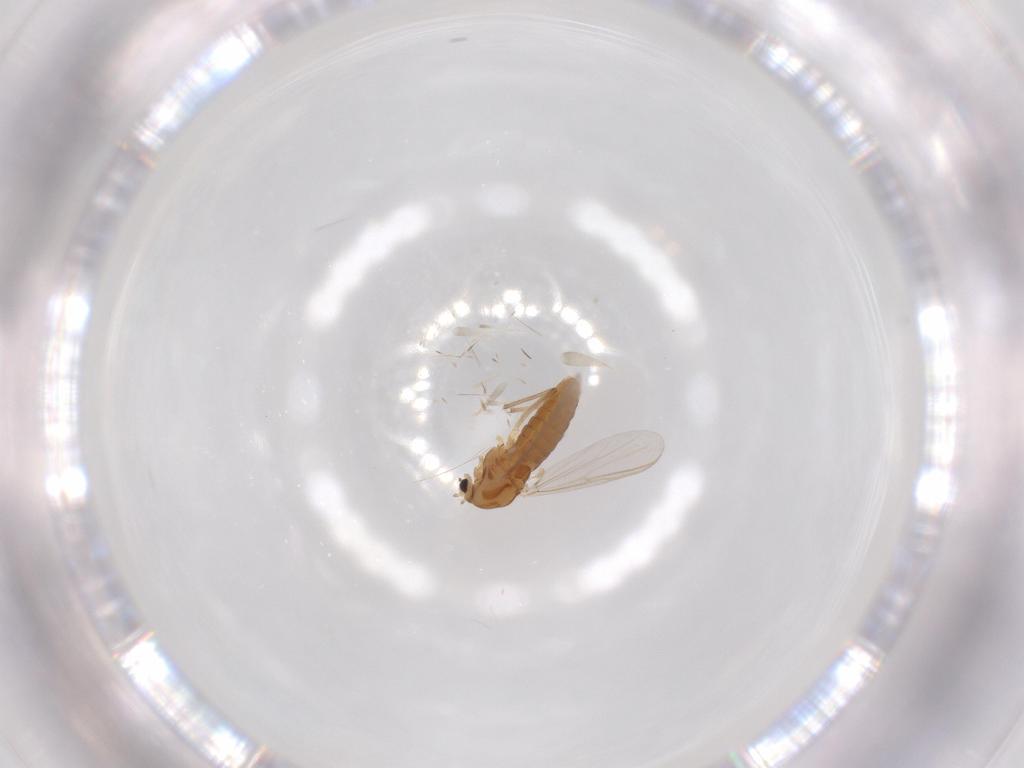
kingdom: Animalia
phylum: Arthropoda
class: Insecta
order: Diptera
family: Chironomidae
